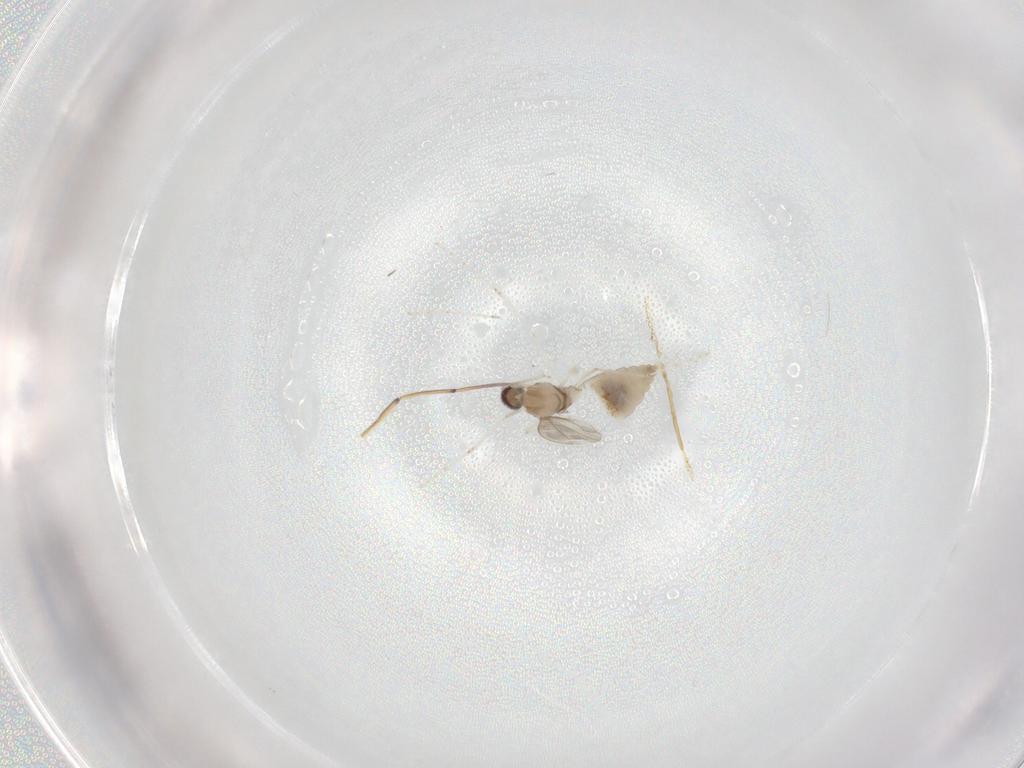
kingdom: Animalia
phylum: Arthropoda
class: Insecta
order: Diptera
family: Cecidomyiidae
